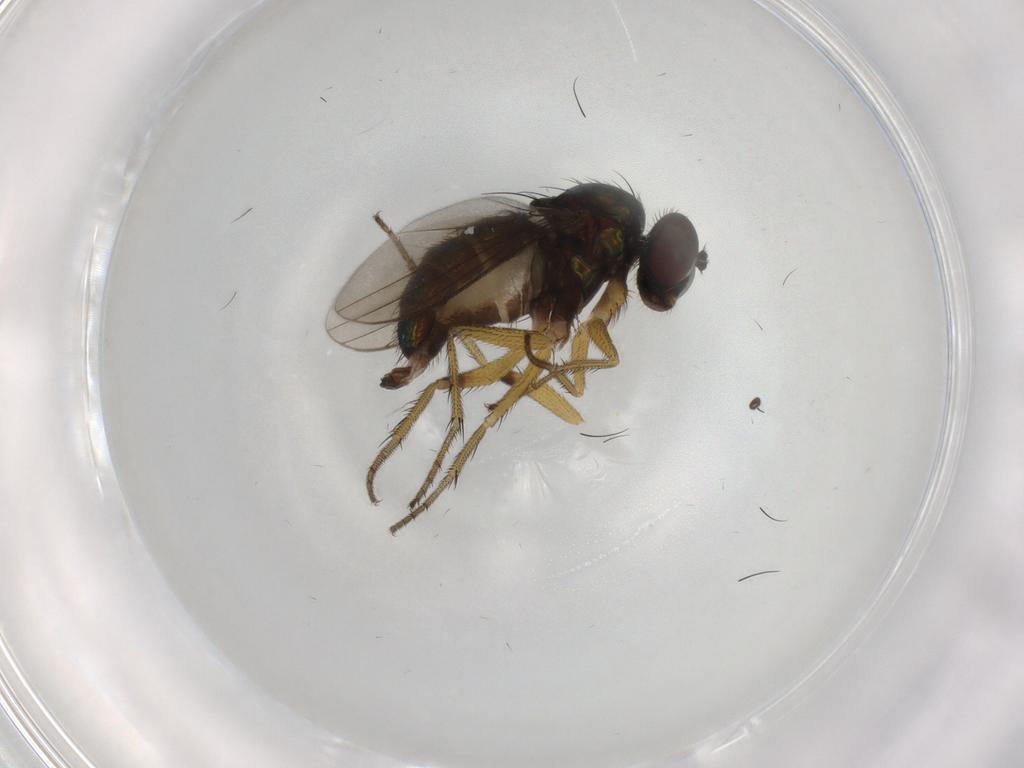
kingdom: Animalia
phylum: Arthropoda
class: Insecta
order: Diptera
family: Dolichopodidae
